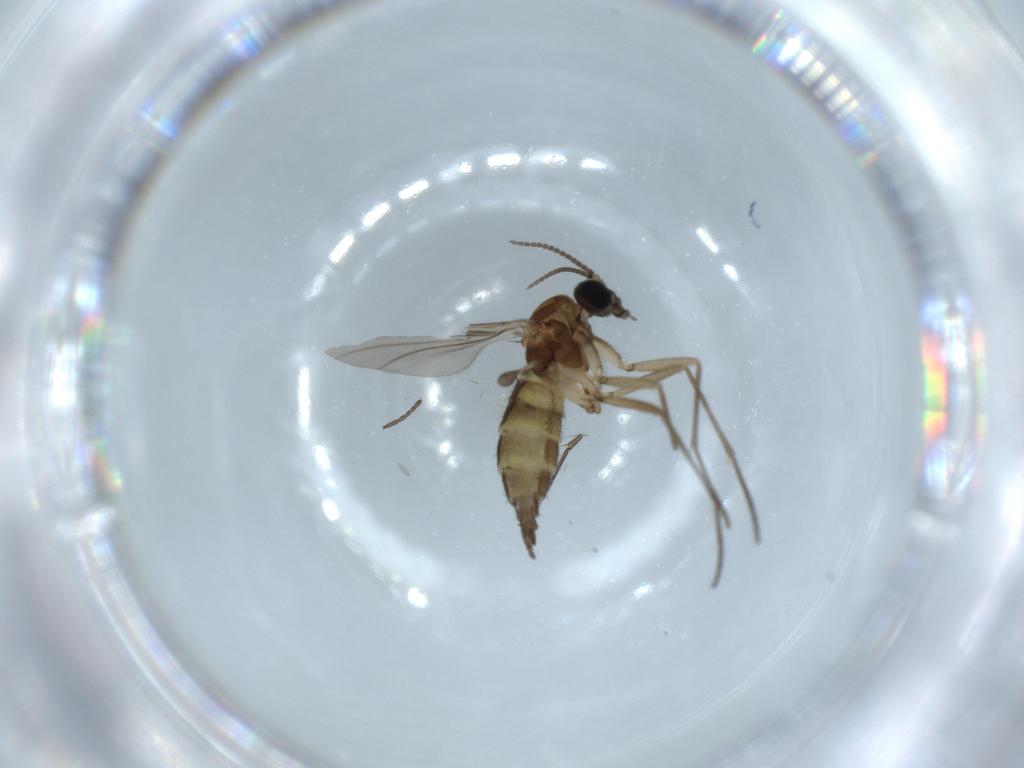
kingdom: Animalia
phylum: Arthropoda
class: Insecta
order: Diptera
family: Sciaridae
